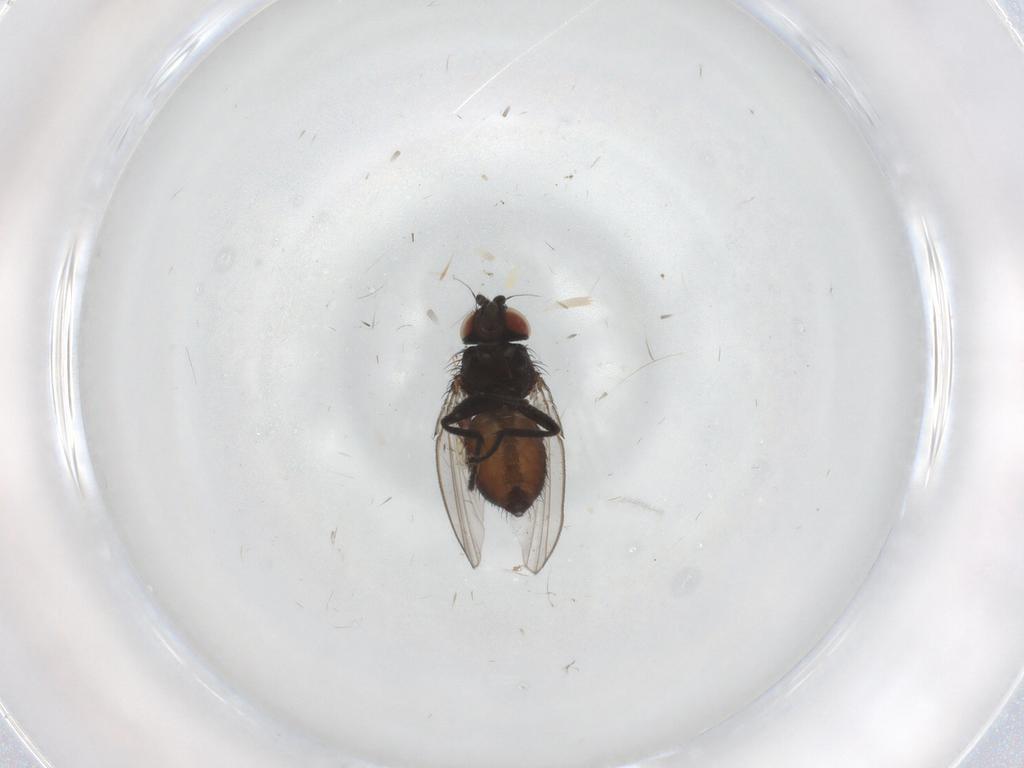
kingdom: Animalia
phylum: Arthropoda
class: Insecta
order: Diptera
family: Milichiidae
